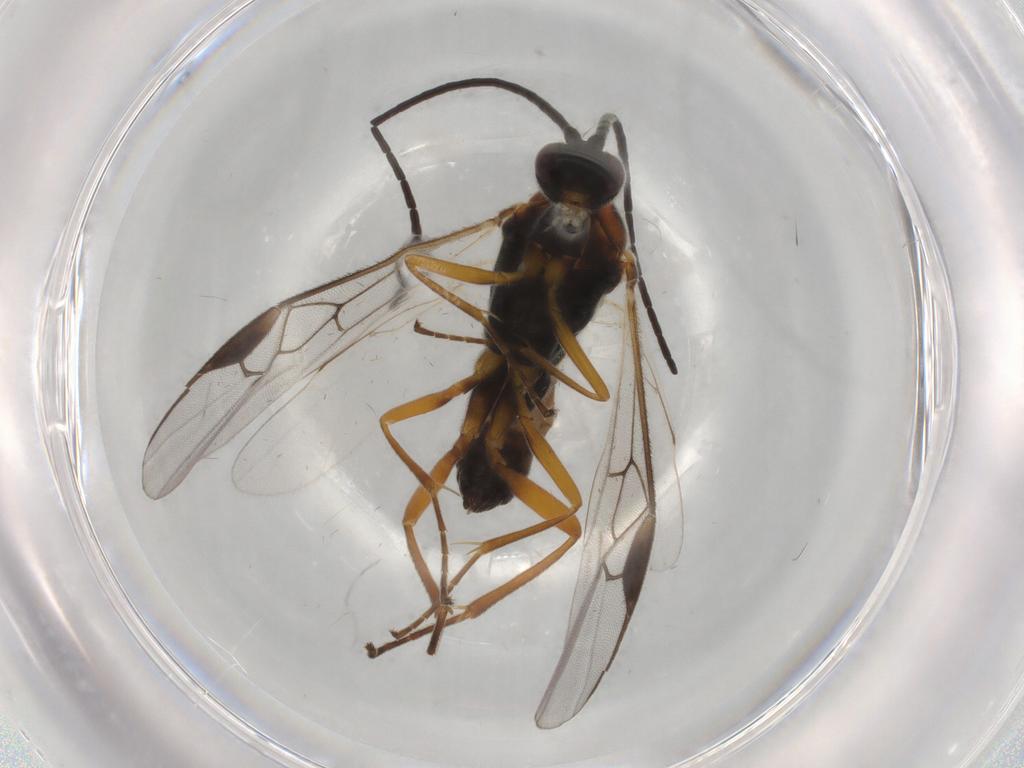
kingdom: Animalia
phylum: Arthropoda
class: Insecta
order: Hymenoptera
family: Braconidae
